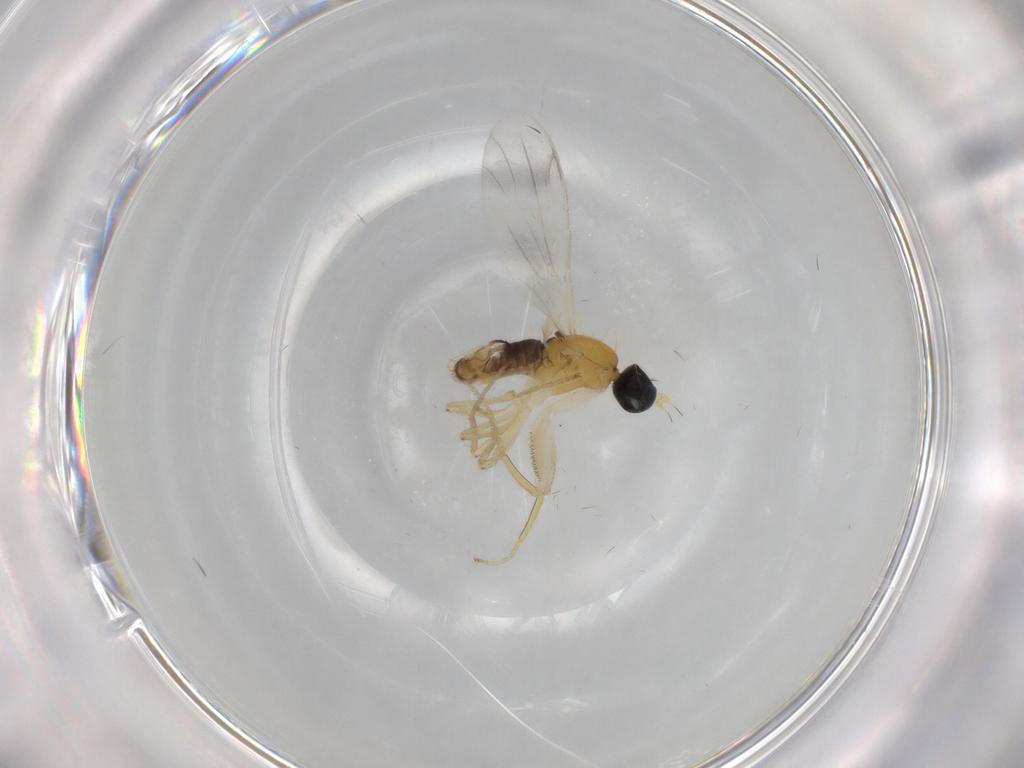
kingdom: Animalia
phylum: Arthropoda
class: Insecta
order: Diptera
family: Chironomidae
